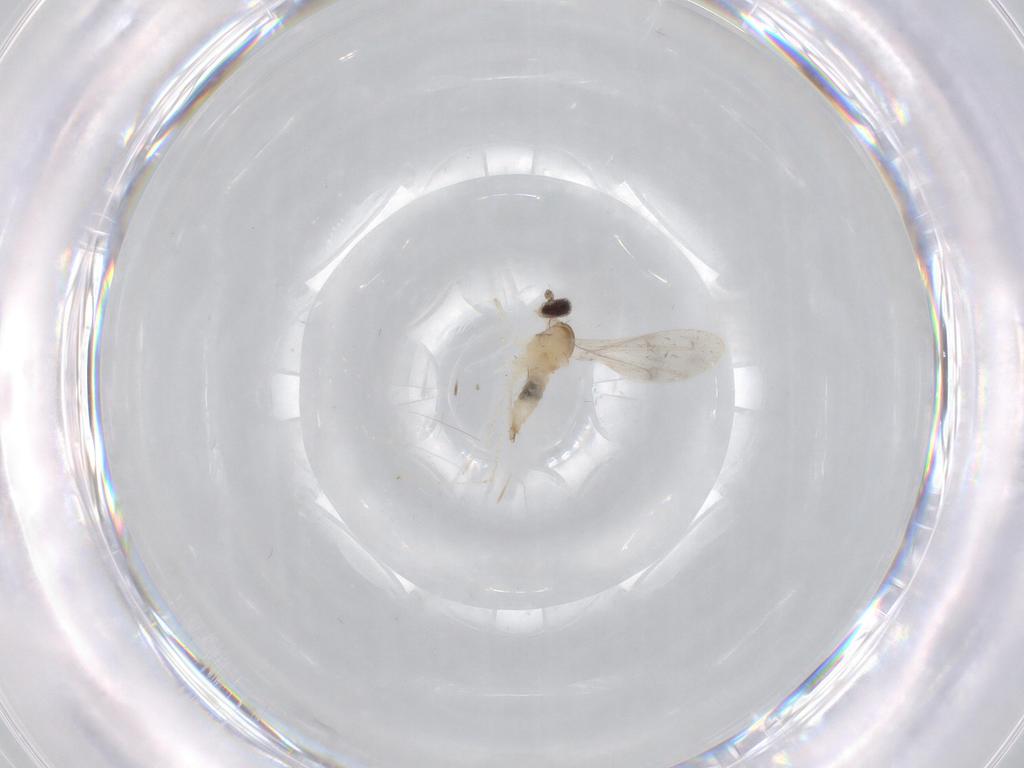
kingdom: Animalia
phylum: Arthropoda
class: Insecta
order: Diptera
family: Cecidomyiidae
